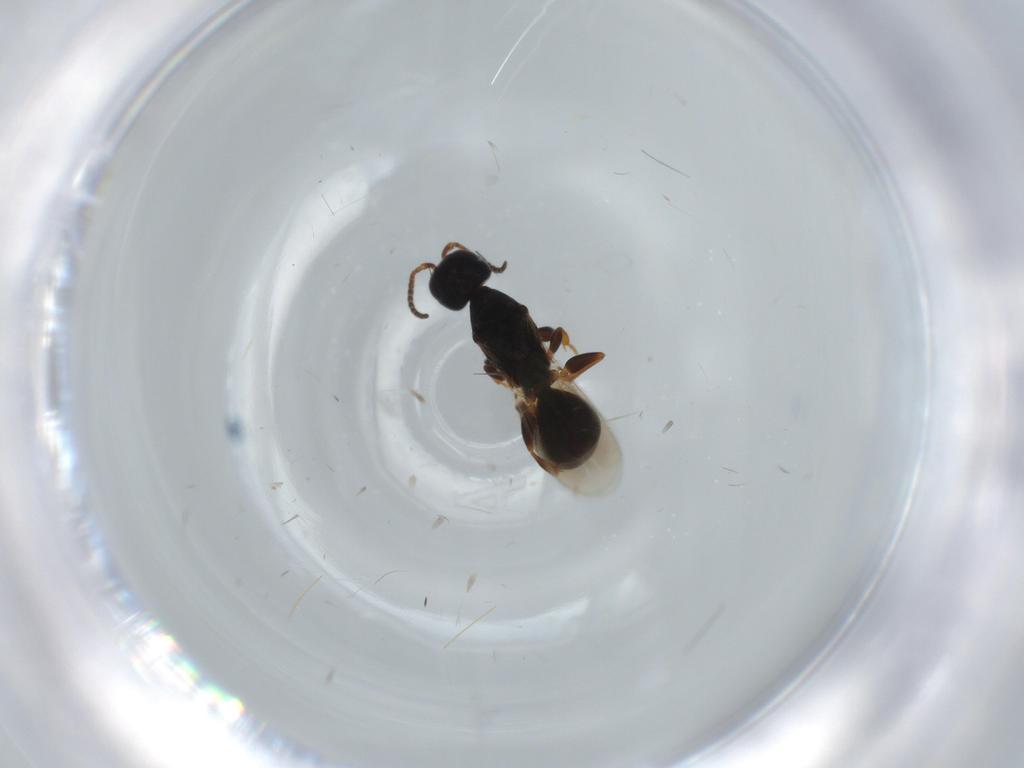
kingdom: Animalia
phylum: Arthropoda
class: Insecta
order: Hymenoptera
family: Bethylidae
